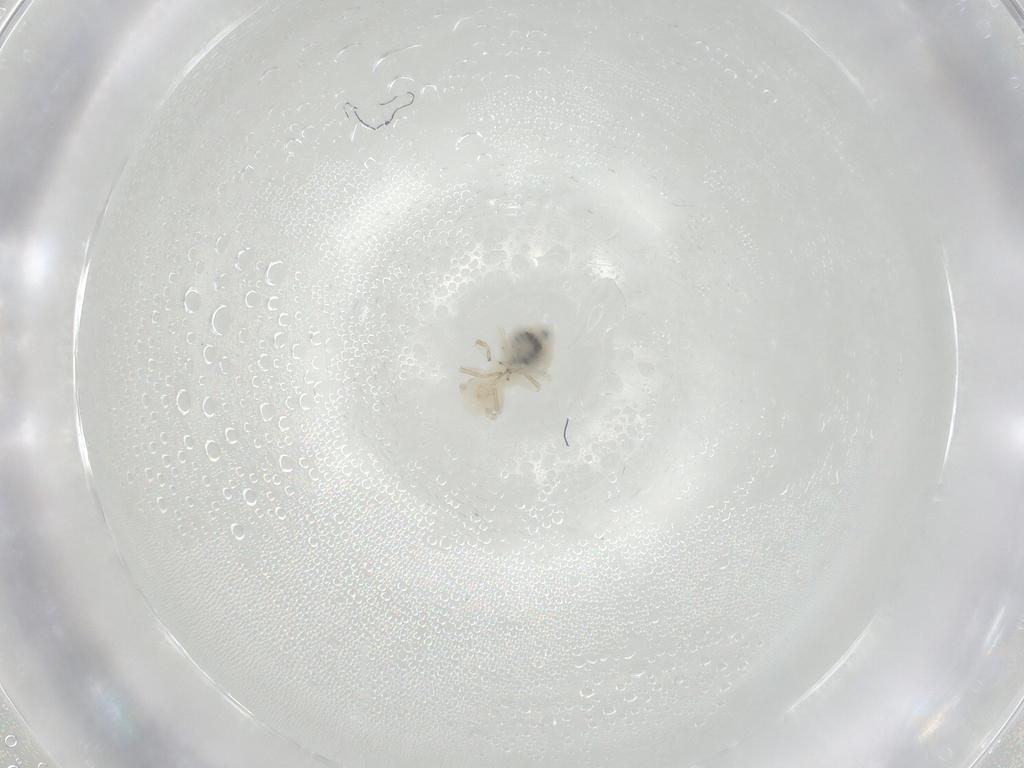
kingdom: Animalia
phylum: Arthropoda
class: Insecta
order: Psocodea
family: Caeciliusidae
